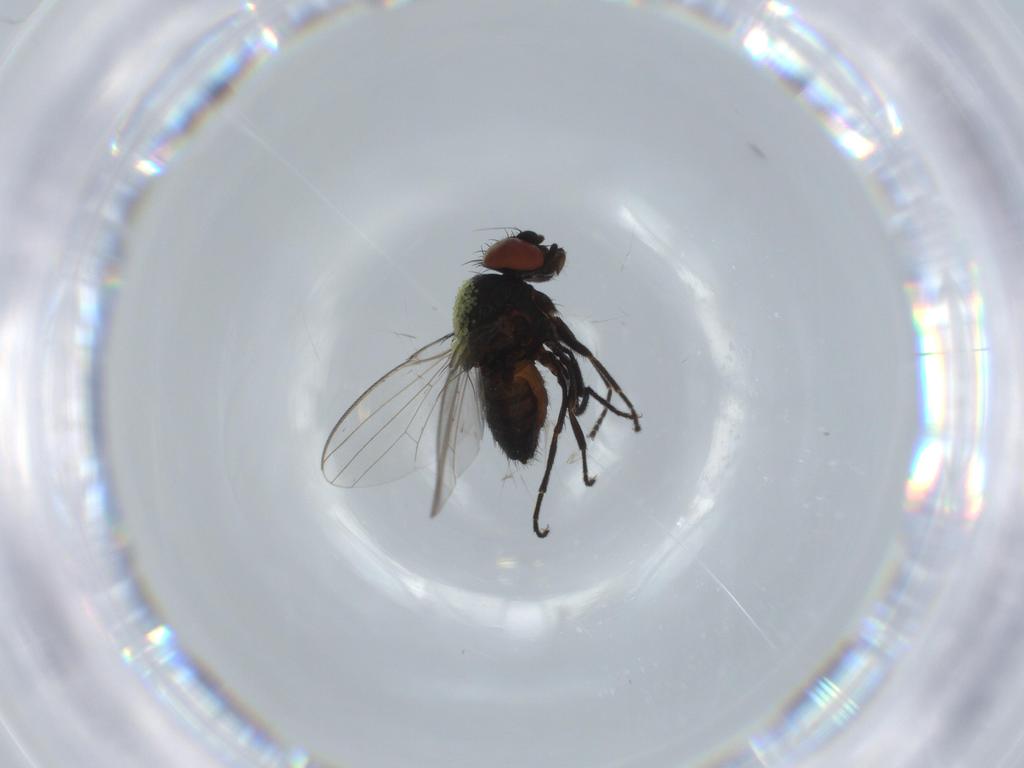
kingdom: Animalia
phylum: Arthropoda
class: Insecta
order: Diptera
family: Milichiidae
